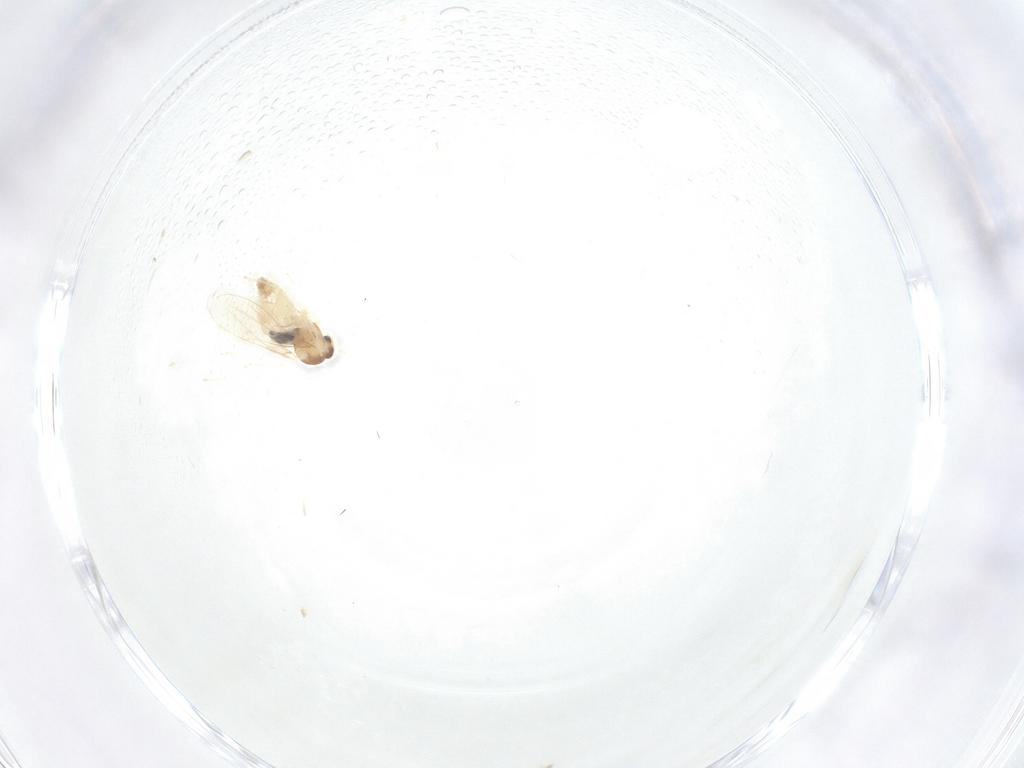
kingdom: Animalia
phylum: Arthropoda
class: Insecta
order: Diptera
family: Cecidomyiidae
